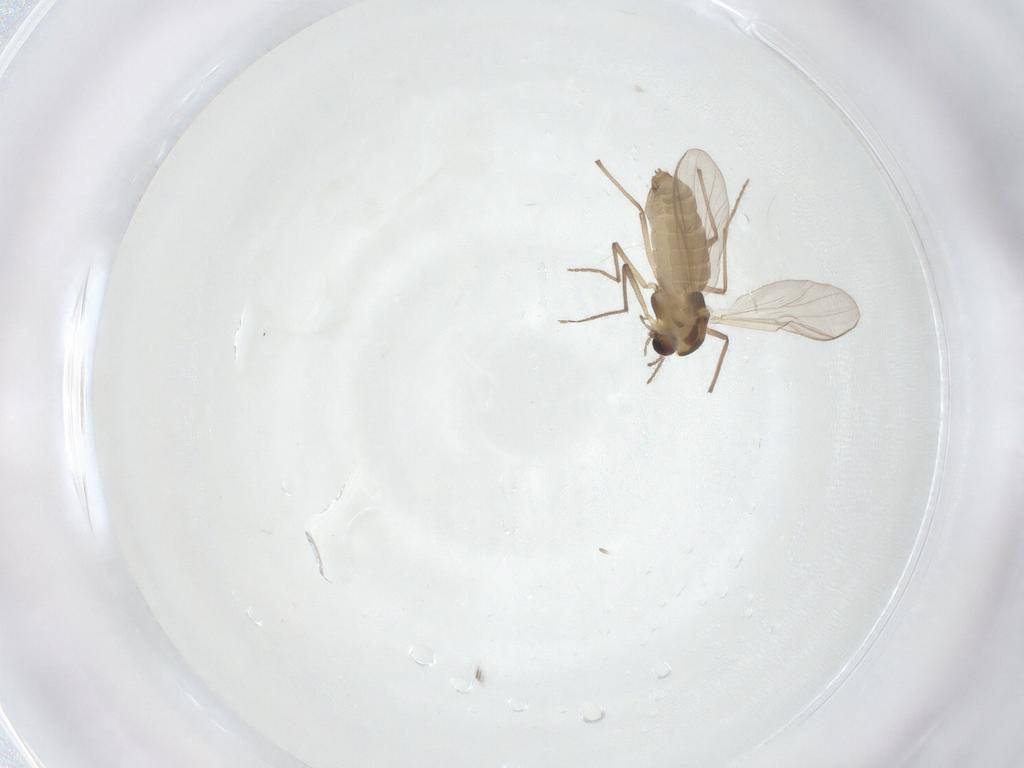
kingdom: Animalia
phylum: Arthropoda
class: Insecta
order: Diptera
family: Chironomidae
